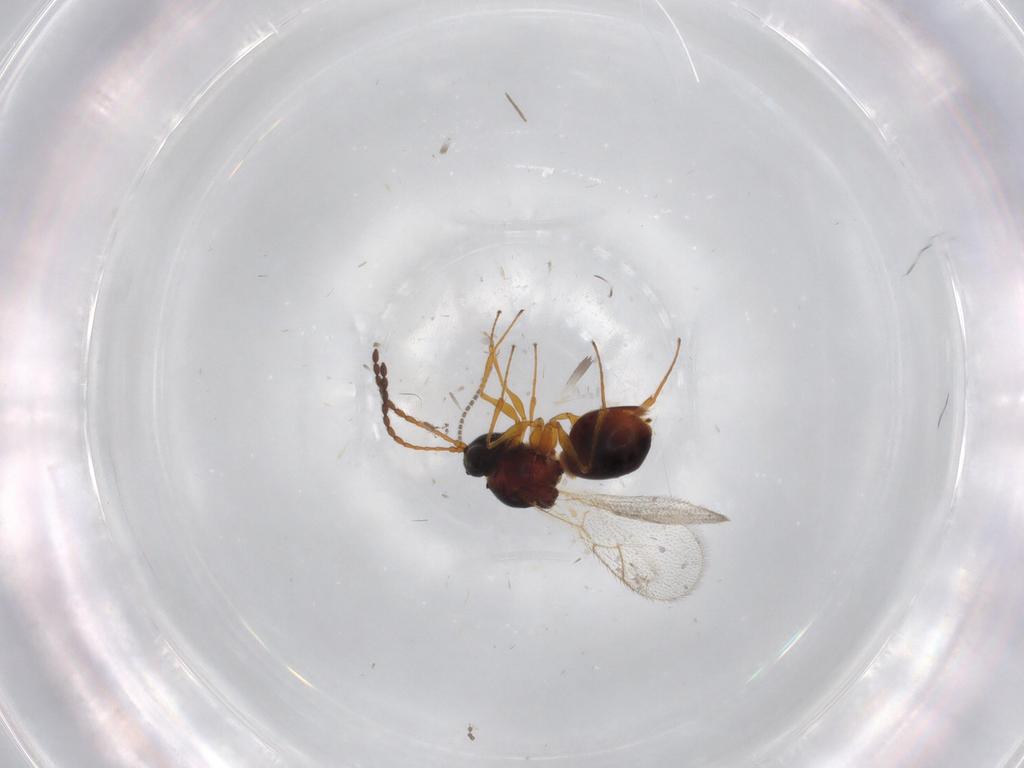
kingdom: Animalia
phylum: Arthropoda
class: Insecta
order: Hymenoptera
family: Figitidae
